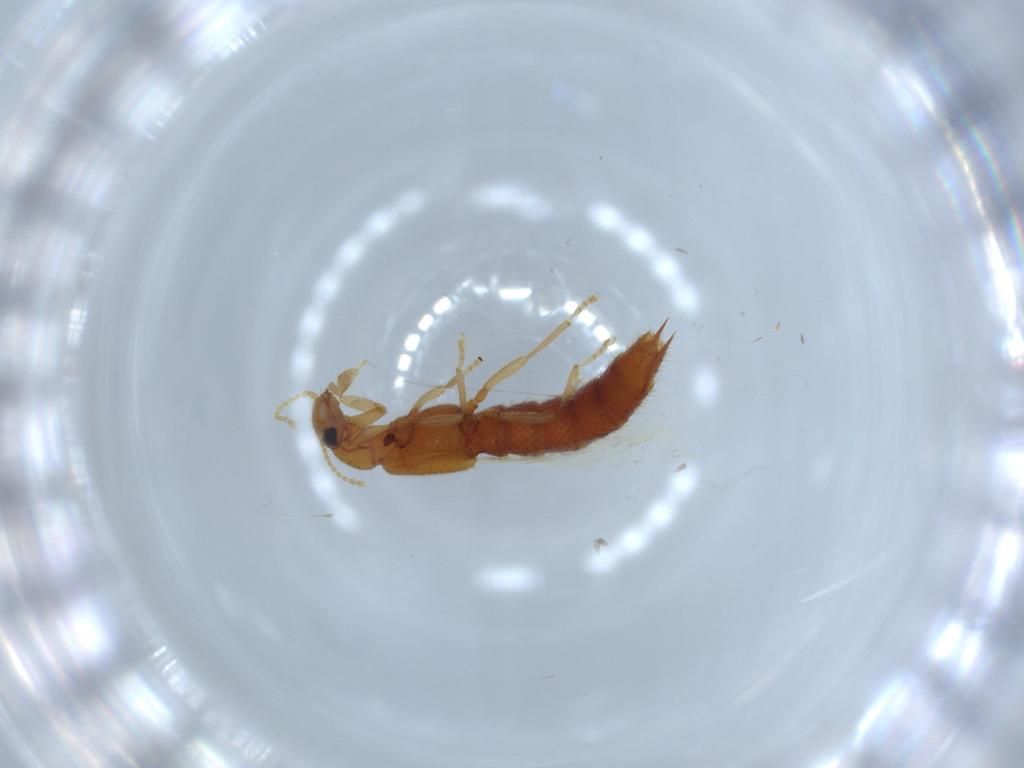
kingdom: Animalia
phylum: Arthropoda
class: Insecta
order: Coleoptera
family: Staphylinidae
